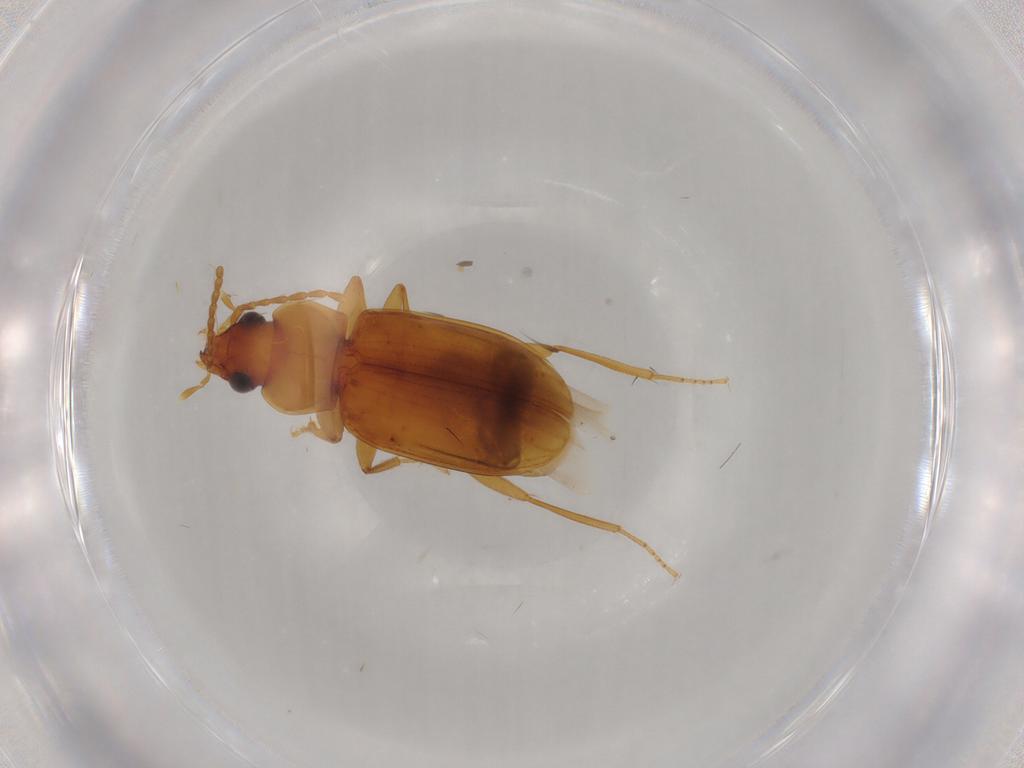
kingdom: Animalia
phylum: Arthropoda
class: Insecta
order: Coleoptera
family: Carabidae
